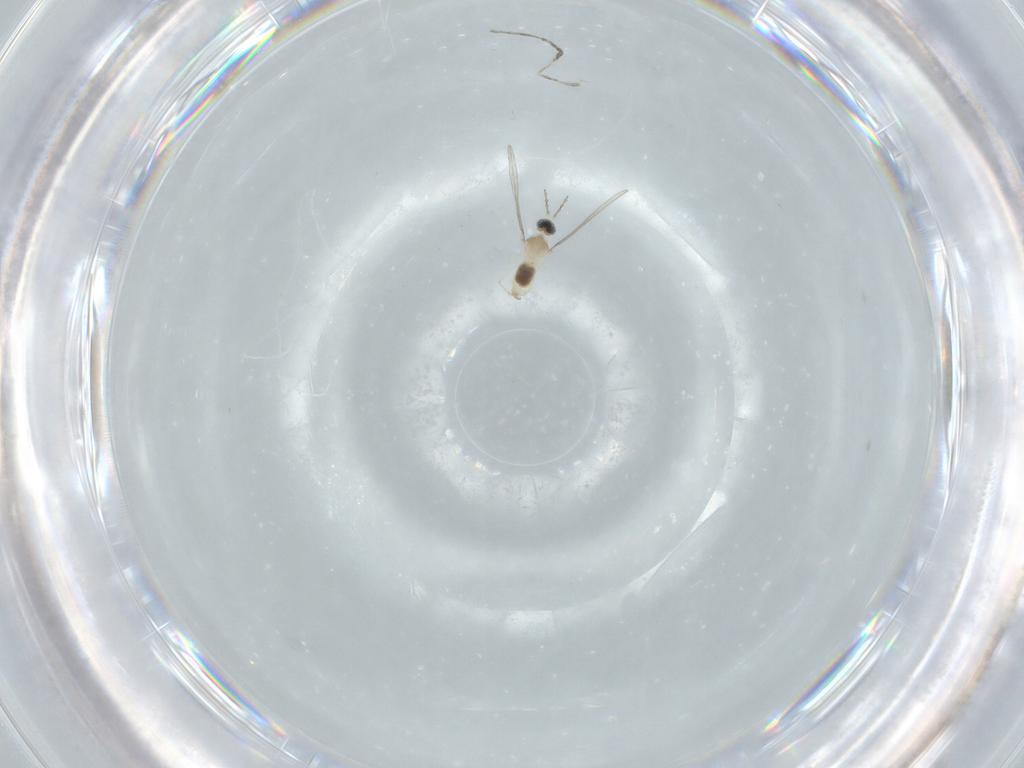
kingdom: Animalia
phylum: Arthropoda
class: Insecta
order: Diptera
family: Cecidomyiidae
